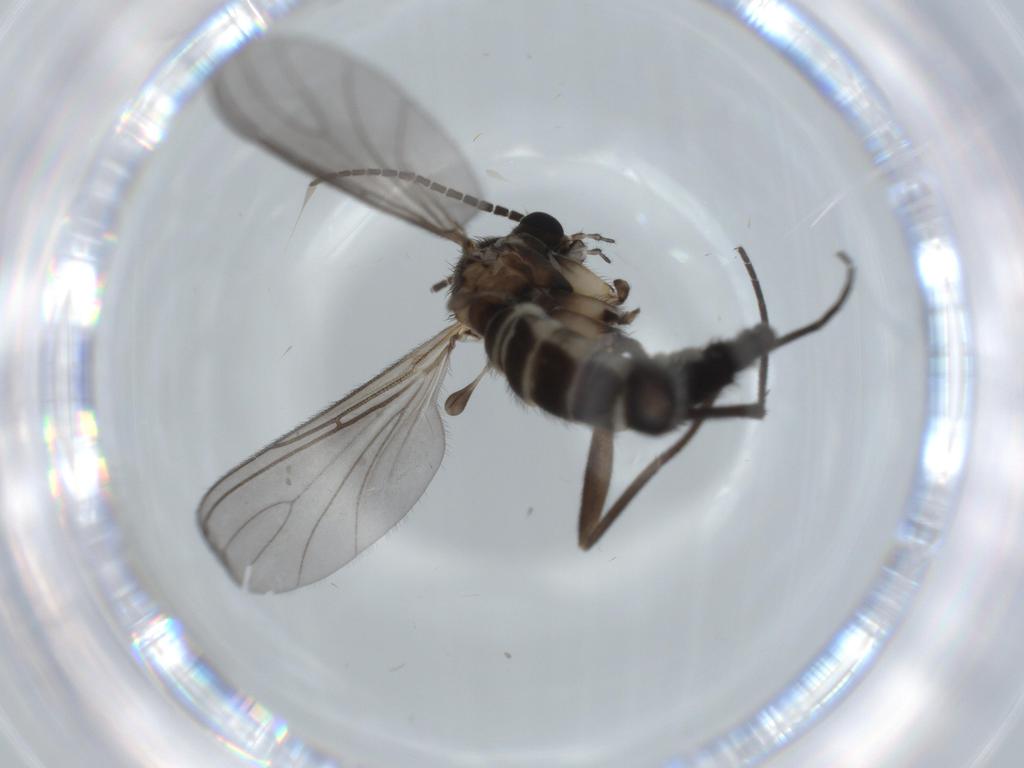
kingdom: Animalia
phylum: Arthropoda
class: Insecta
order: Diptera
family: Sciaridae
